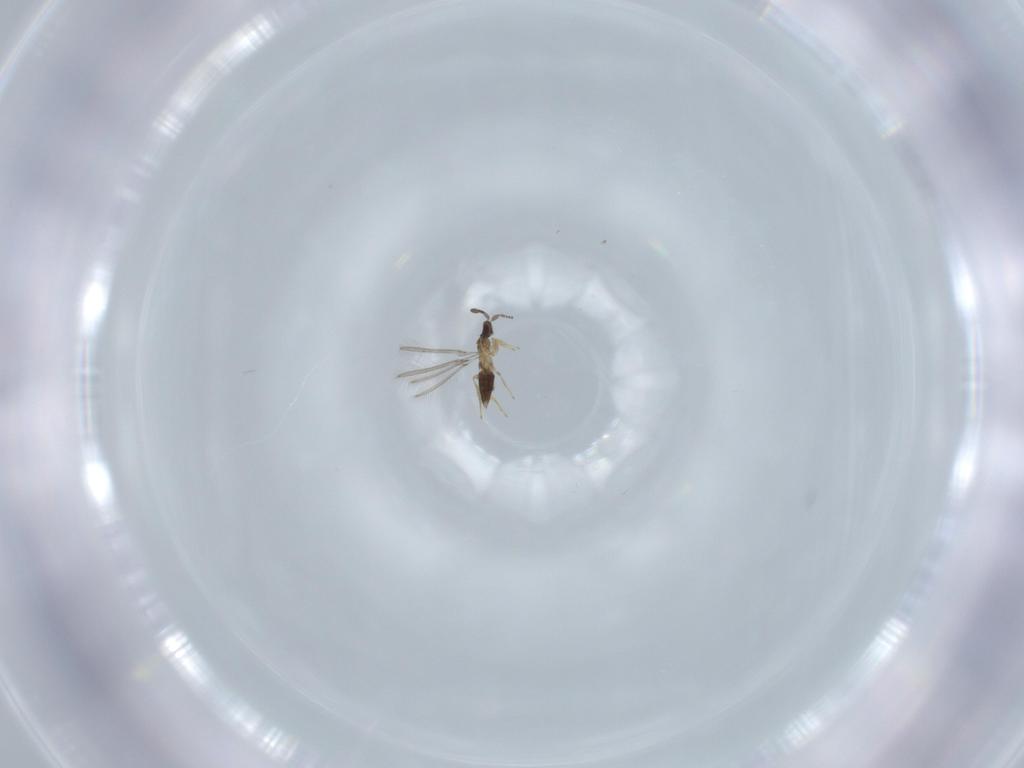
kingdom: Animalia
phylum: Arthropoda
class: Insecta
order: Hymenoptera
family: Mymaridae
